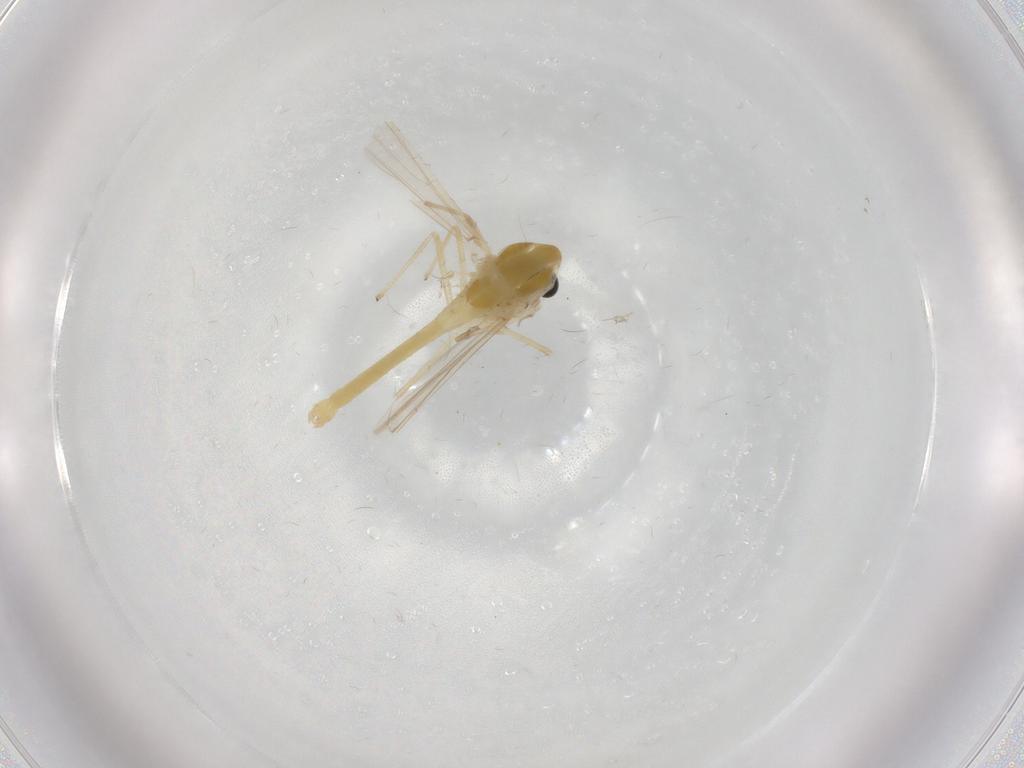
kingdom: Animalia
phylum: Arthropoda
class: Insecta
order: Diptera
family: Chironomidae
